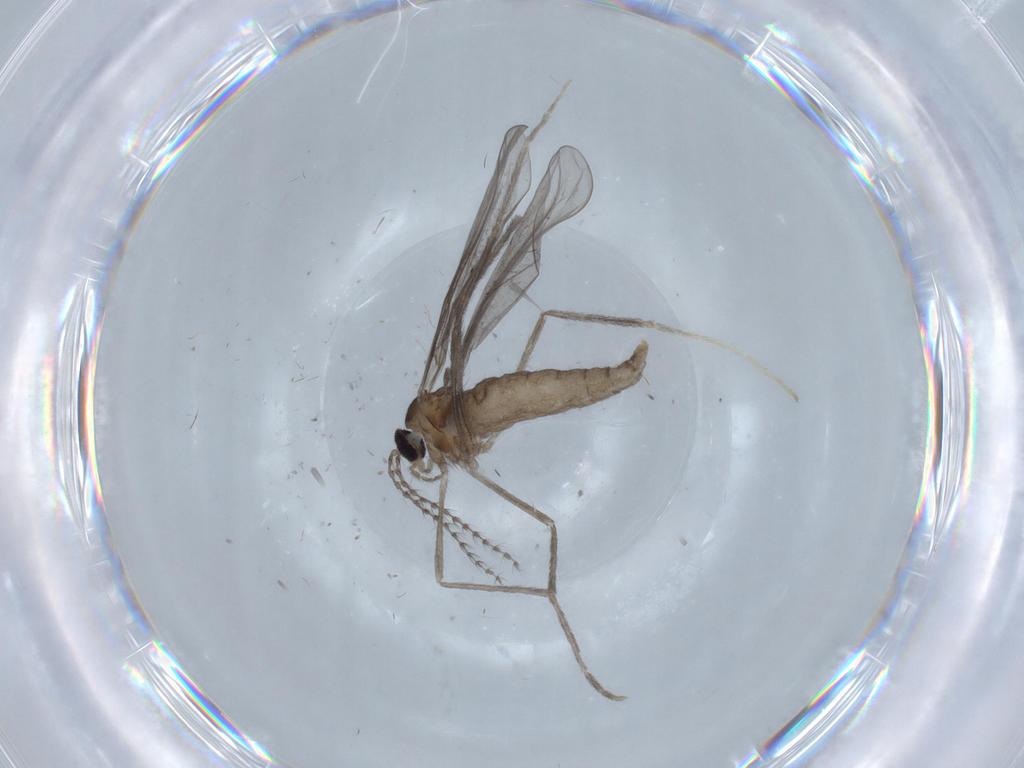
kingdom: Animalia
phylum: Arthropoda
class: Insecta
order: Diptera
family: Cecidomyiidae
